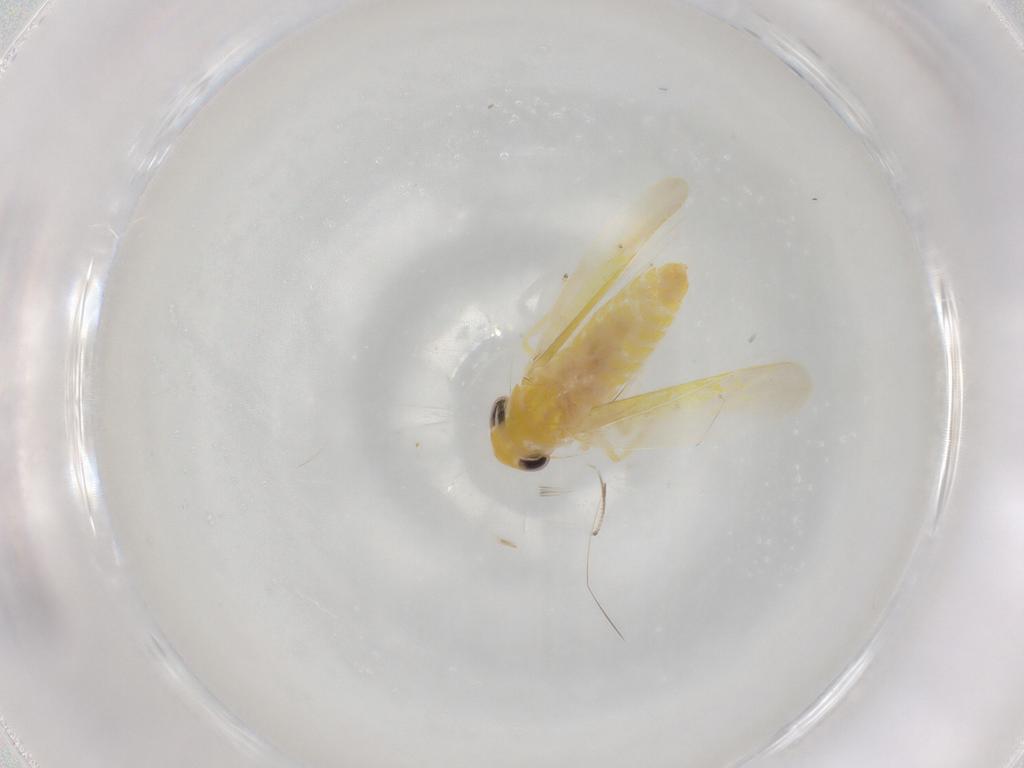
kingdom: Animalia
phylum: Arthropoda
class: Insecta
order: Hemiptera
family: Cicadellidae
